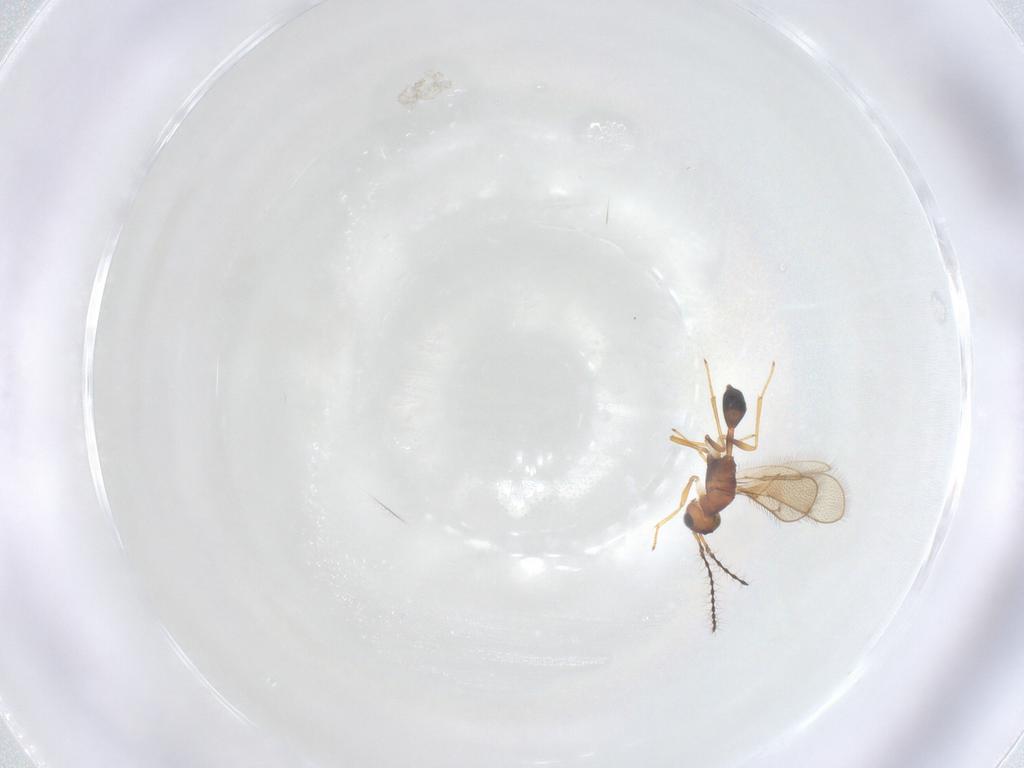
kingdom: Animalia
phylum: Arthropoda
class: Insecta
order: Hymenoptera
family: Diparidae
